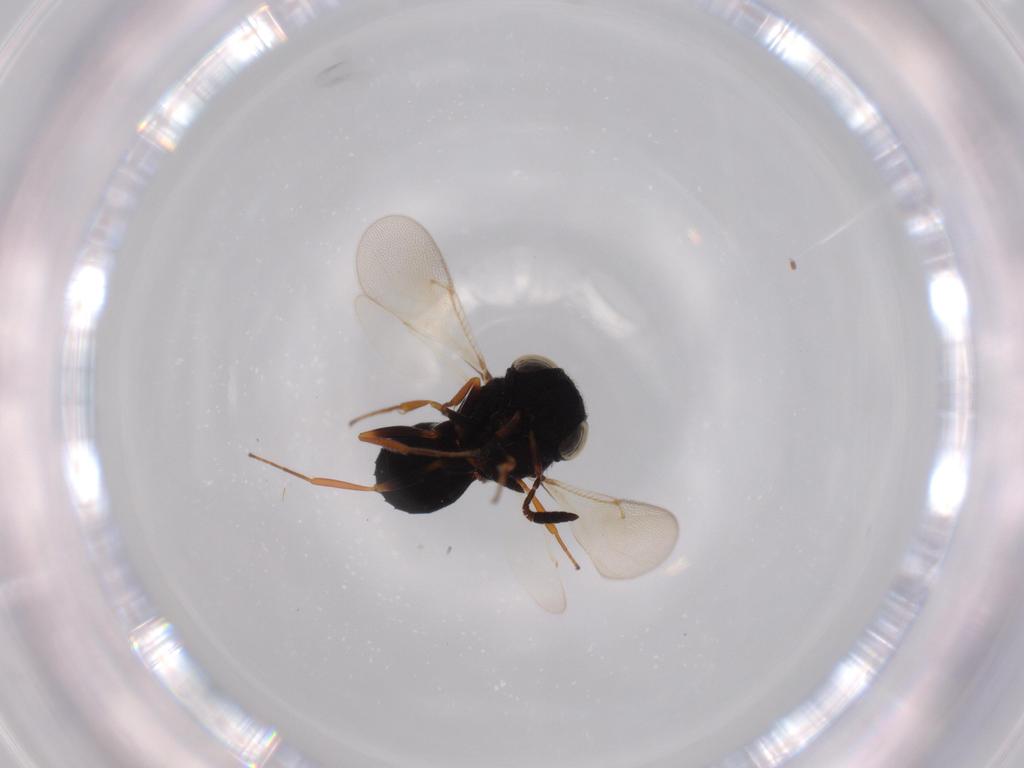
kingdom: Animalia
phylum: Arthropoda
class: Insecta
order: Hymenoptera
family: Scelionidae
